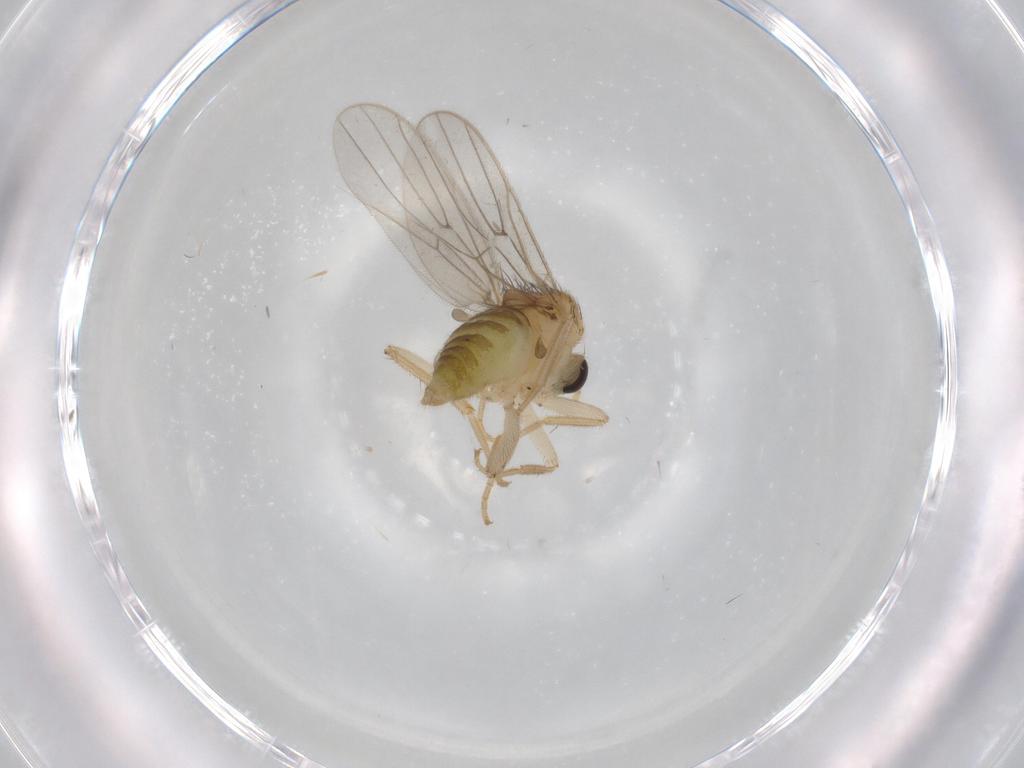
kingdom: Animalia
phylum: Arthropoda
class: Insecta
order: Diptera
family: Hybotidae
